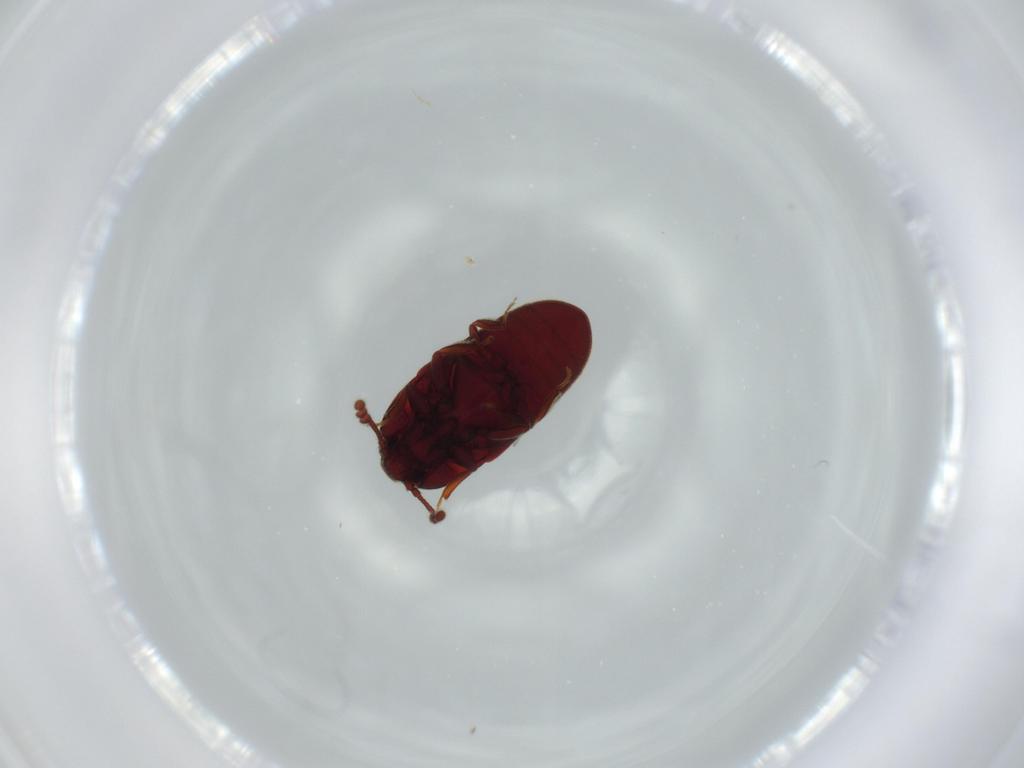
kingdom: Animalia
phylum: Arthropoda
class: Insecta
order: Coleoptera
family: Throscidae
